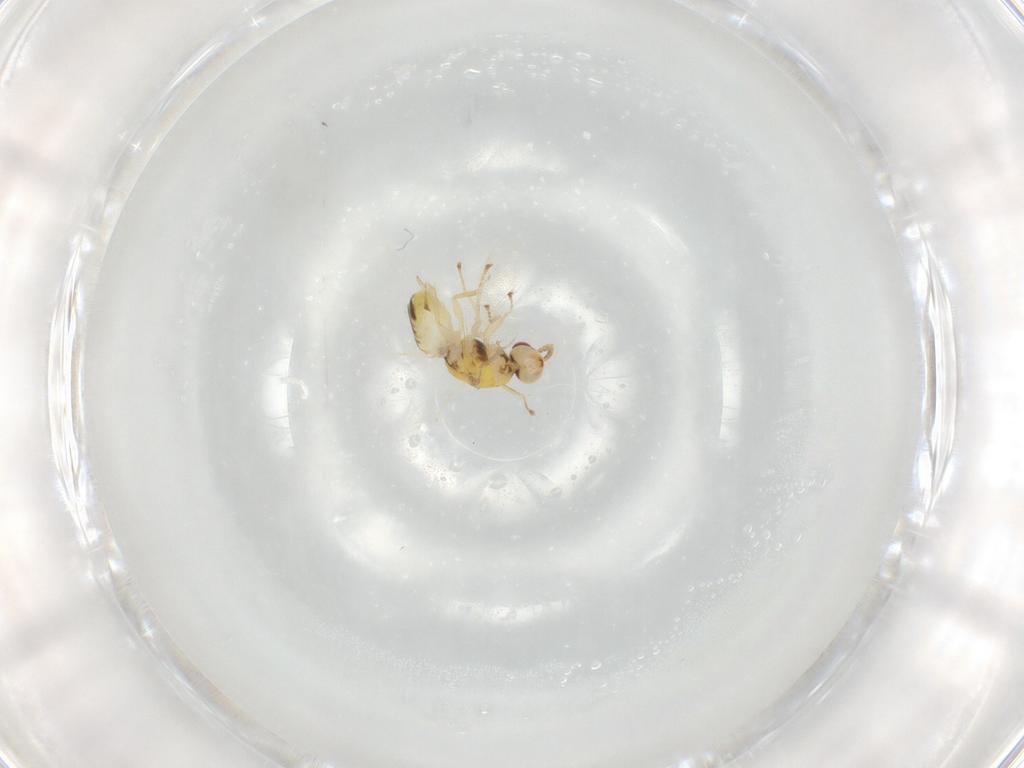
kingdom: Animalia
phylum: Arthropoda
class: Insecta
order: Hymenoptera
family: Eulophidae
